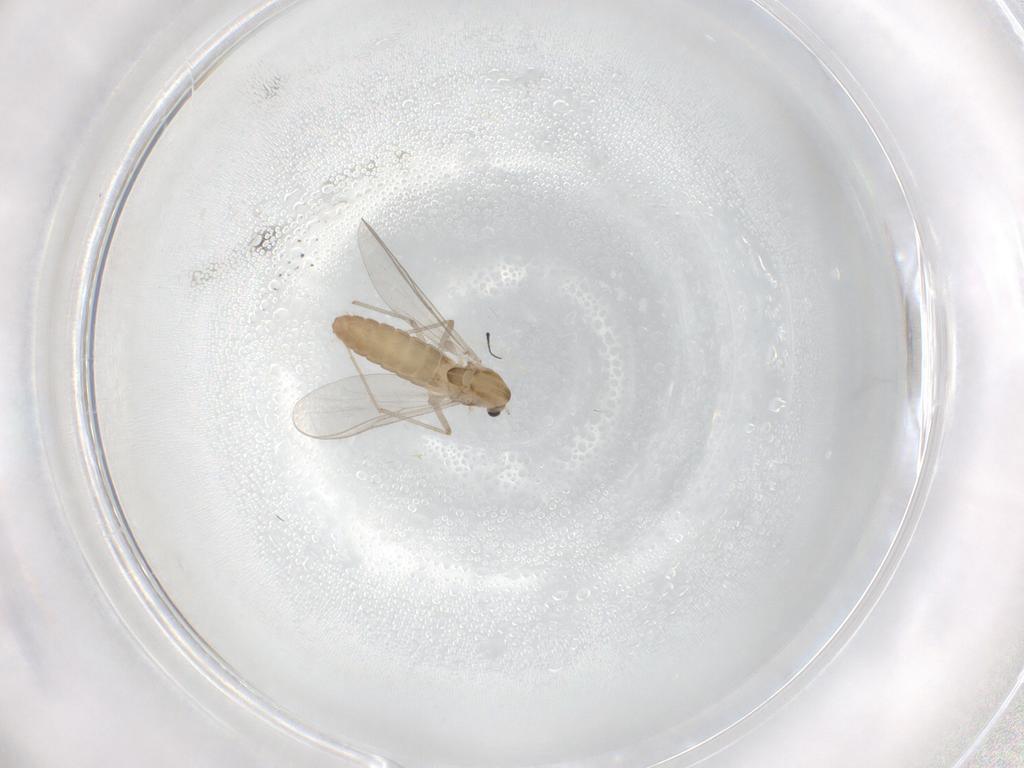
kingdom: Animalia
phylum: Arthropoda
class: Insecta
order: Diptera
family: Chironomidae
